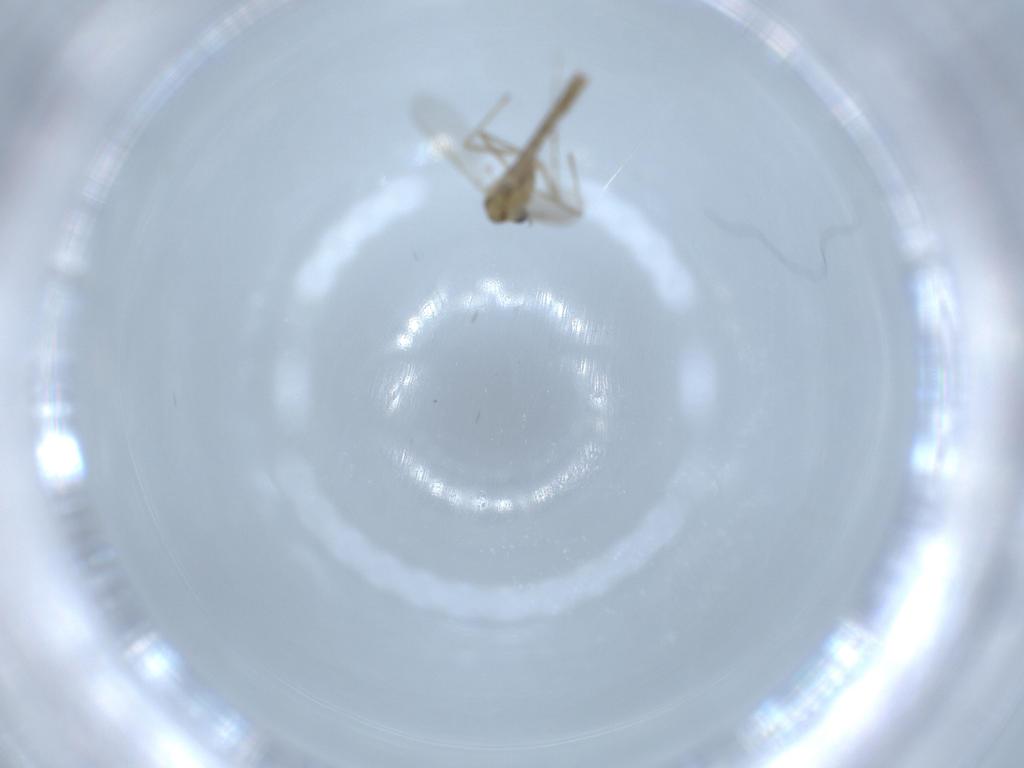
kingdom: Animalia
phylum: Arthropoda
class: Insecta
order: Diptera
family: Chironomidae
